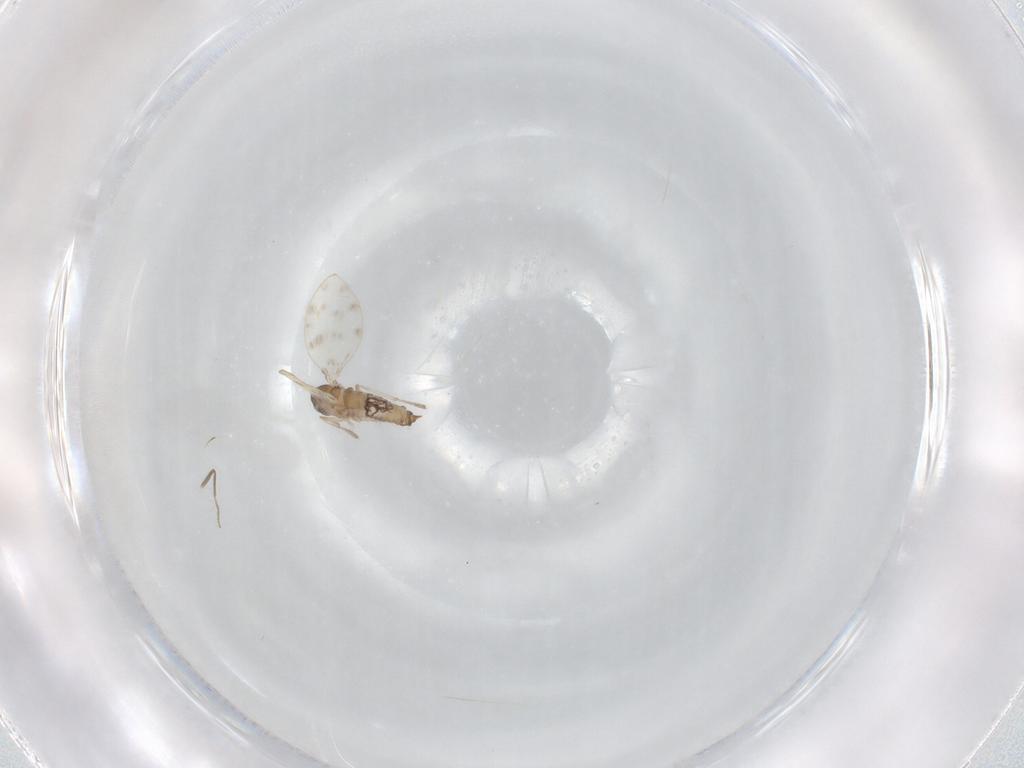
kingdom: Animalia
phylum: Arthropoda
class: Insecta
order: Diptera
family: Psychodidae
